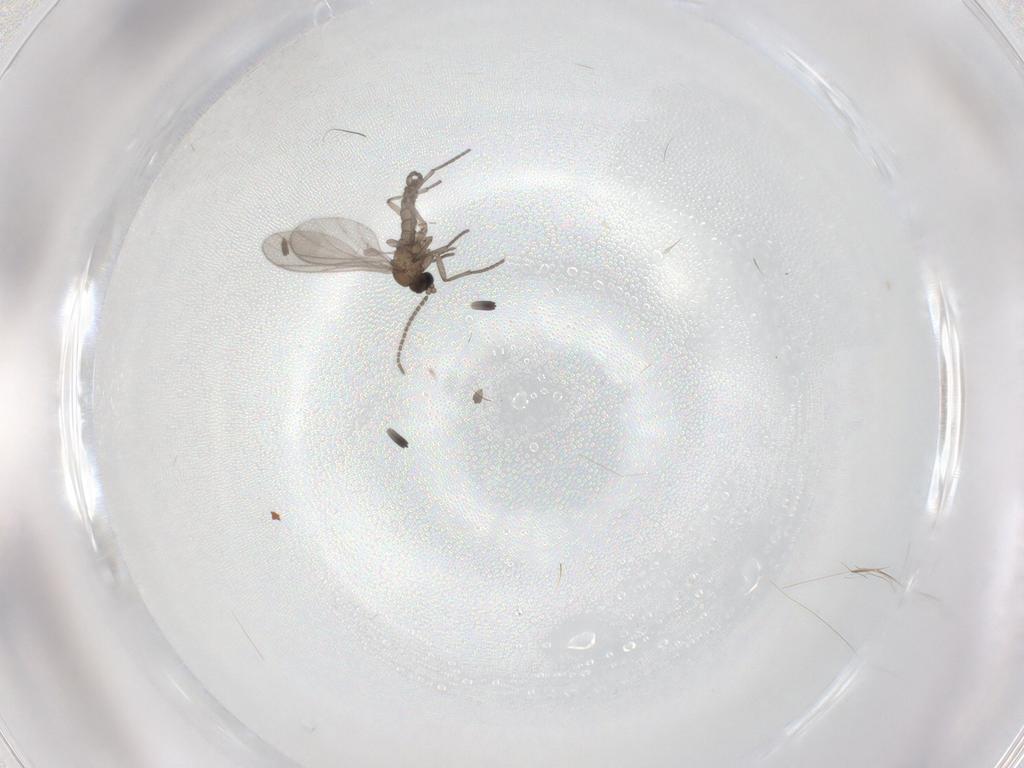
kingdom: Animalia
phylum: Arthropoda
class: Insecta
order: Diptera
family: Sciaridae
